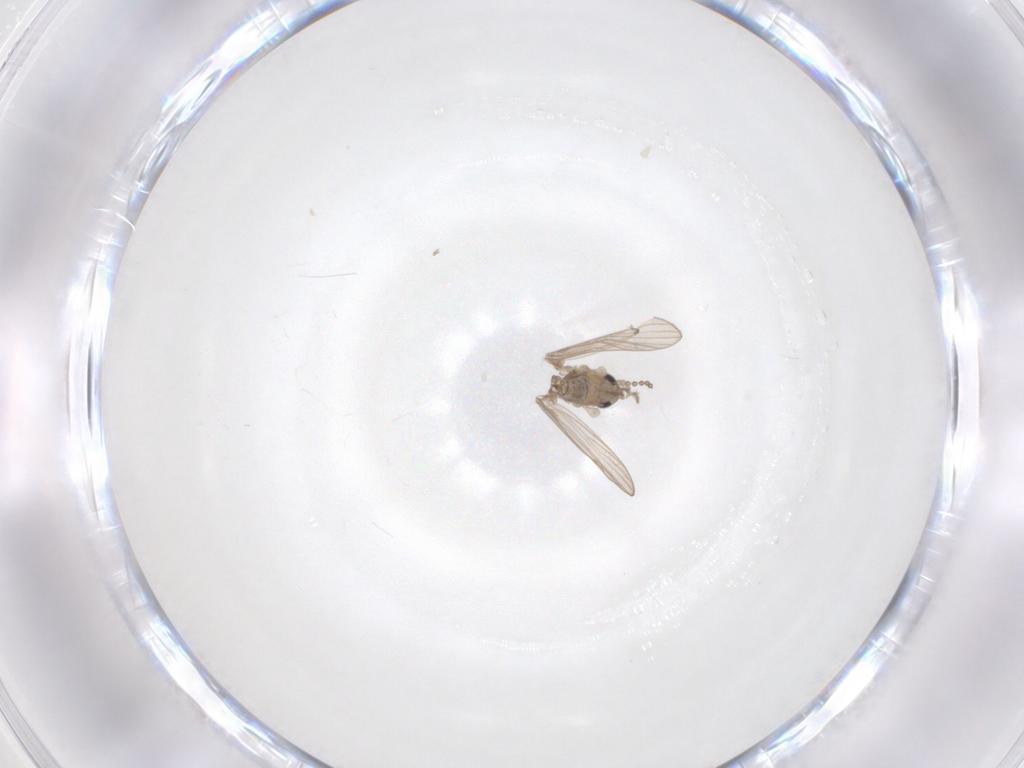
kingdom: Animalia
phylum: Arthropoda
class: Insecta
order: Diptera
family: Psychodidae
